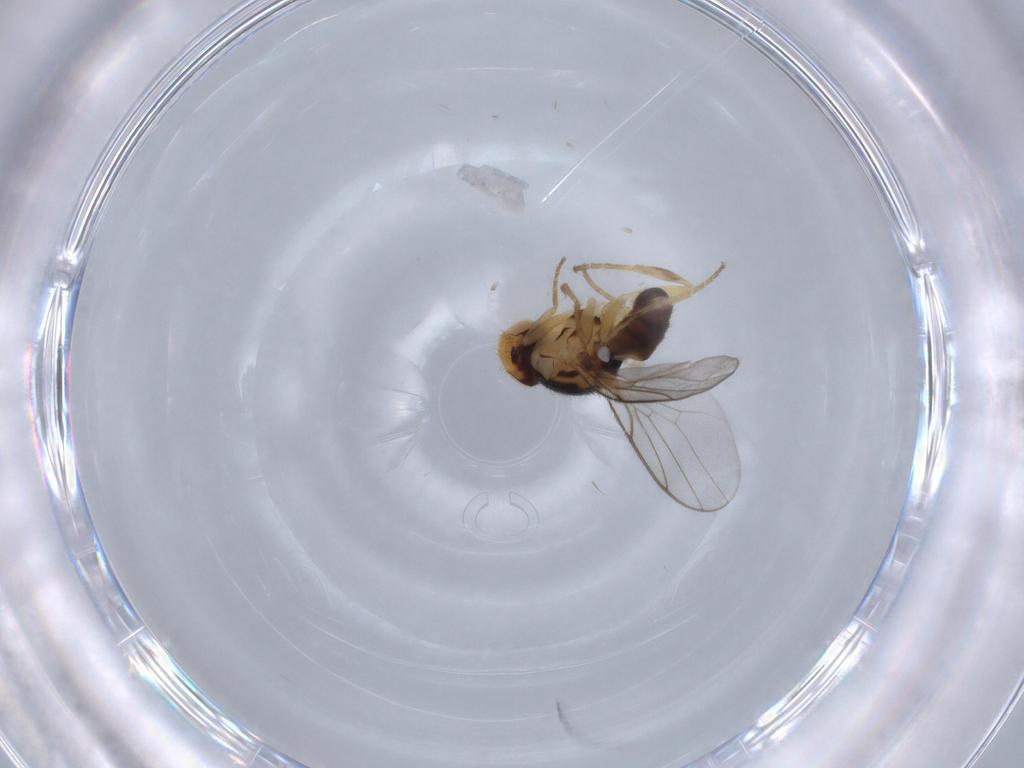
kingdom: Animalia
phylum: Arthropoda
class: Insecta
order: Diptera
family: Chloropidae
